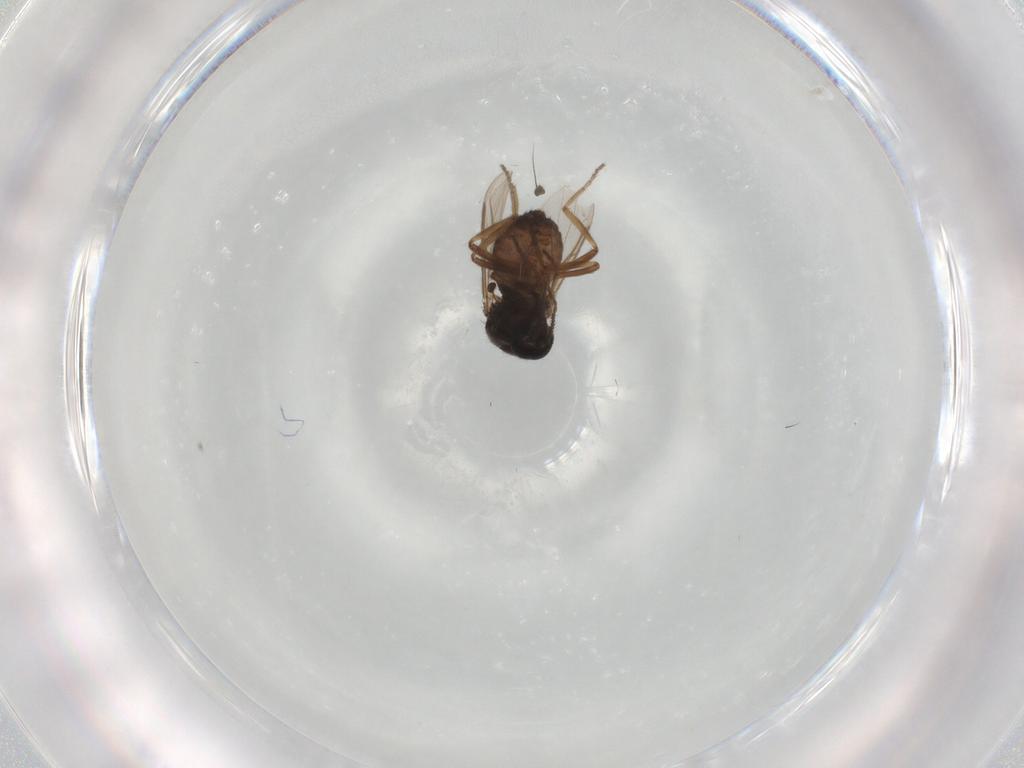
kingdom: Animalia
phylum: Arthropoda
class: Insecta
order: Diptera
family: Ceratopogonidae
